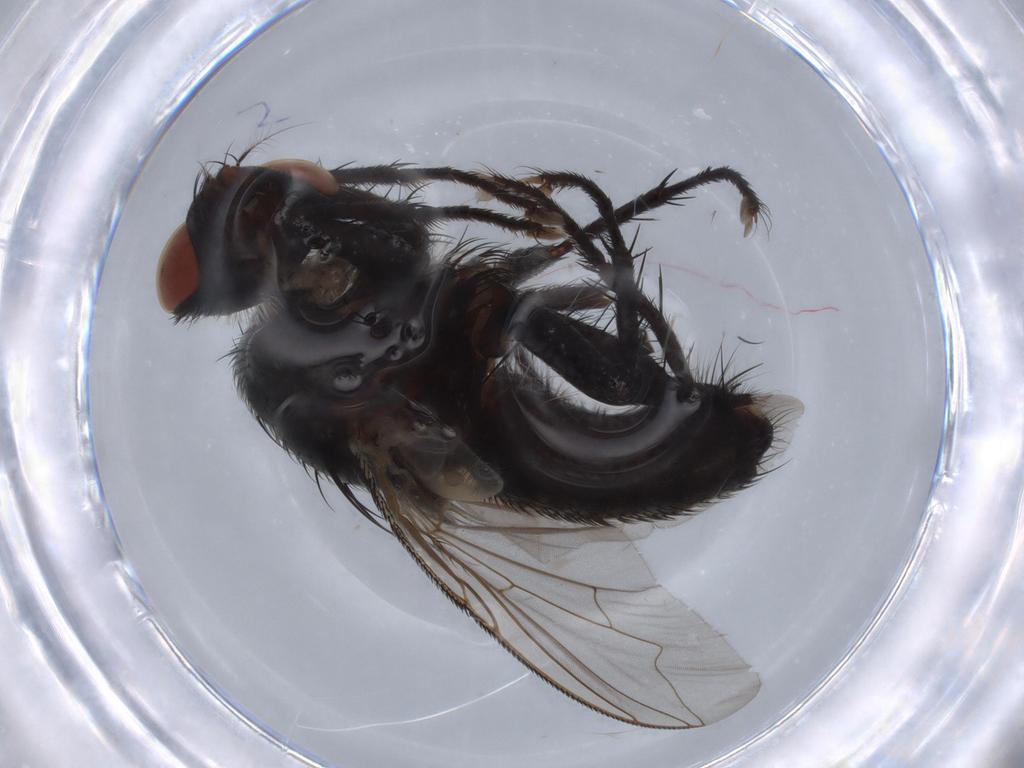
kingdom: Animalia
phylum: Arthropoda
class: Insecta
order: Diptera
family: Sarcophagidae
